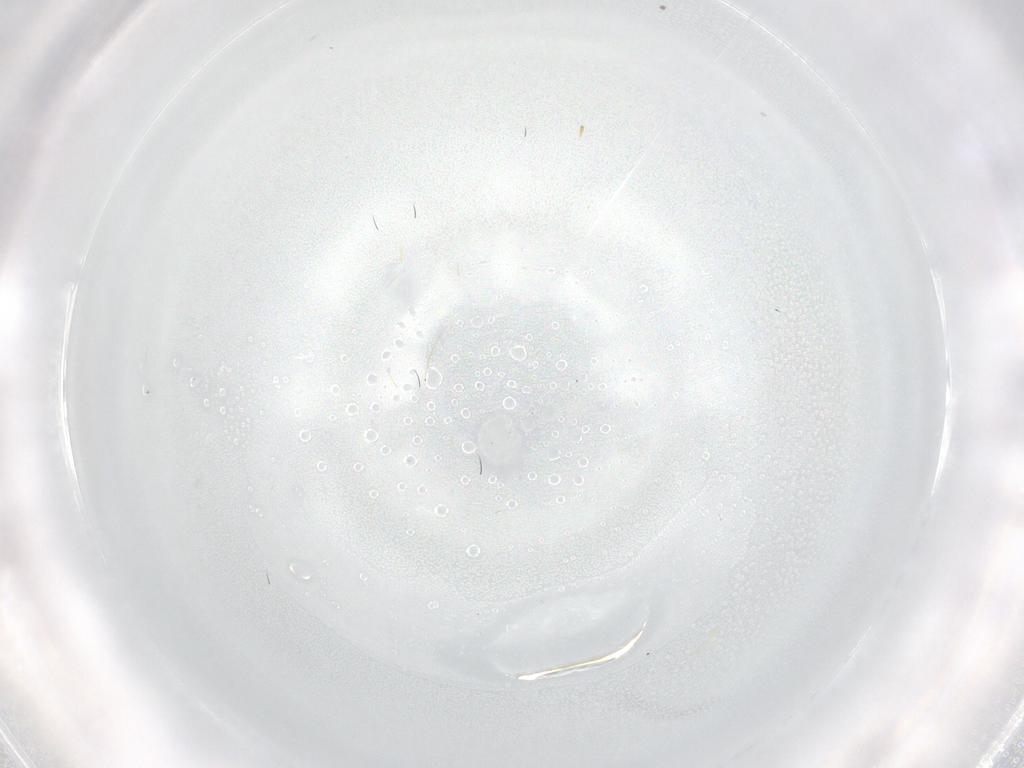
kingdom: Animalia
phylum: Arthropoda
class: Insecta
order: Diptera
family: Sciaridae
